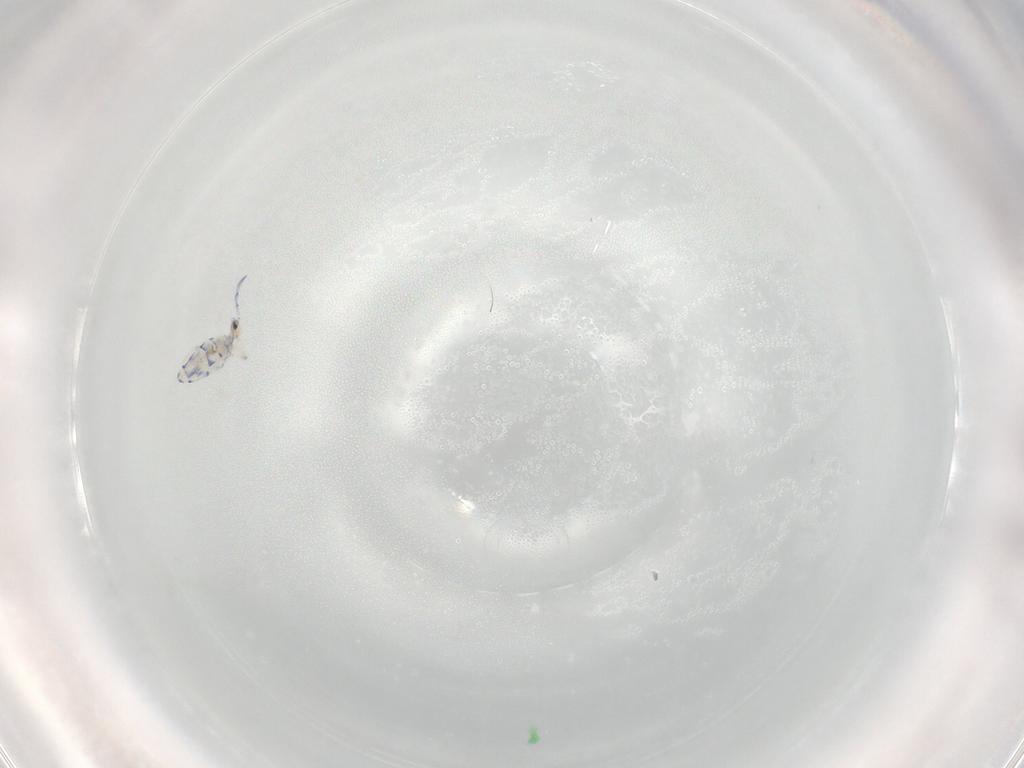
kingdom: Animalia
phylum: Arthropoda
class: Collembola
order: Entomobryomorpha
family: Entomobryidae
